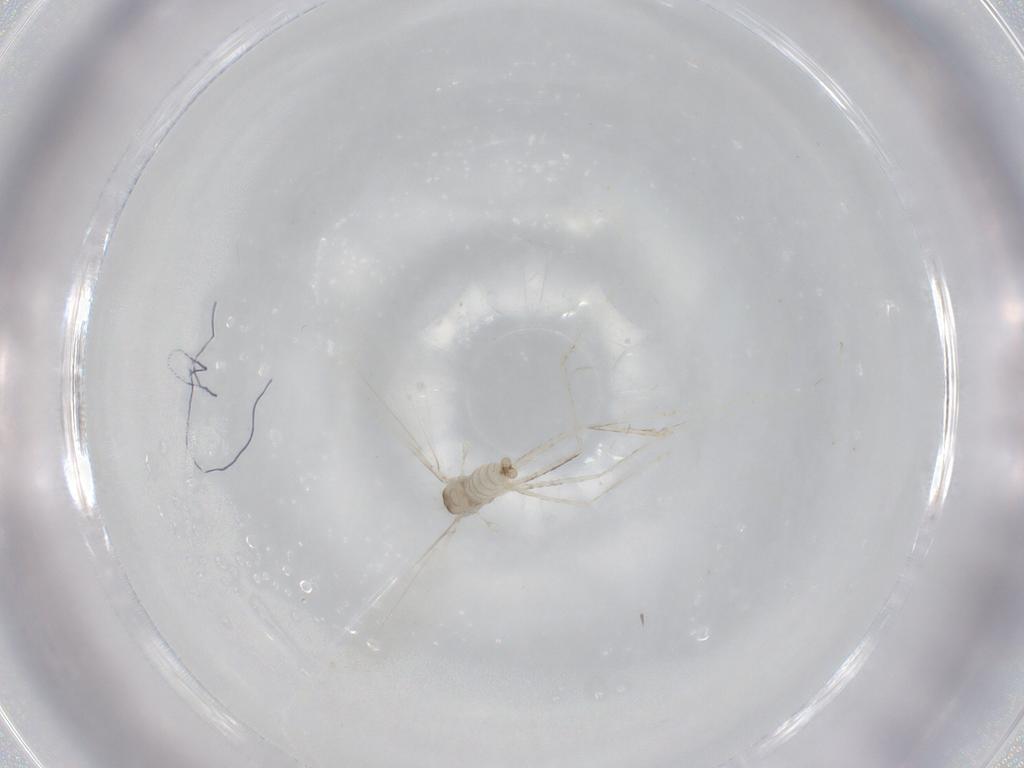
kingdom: Animalia
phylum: Arthropoda
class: Insecta
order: Diptera
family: Cecidomyiidae
